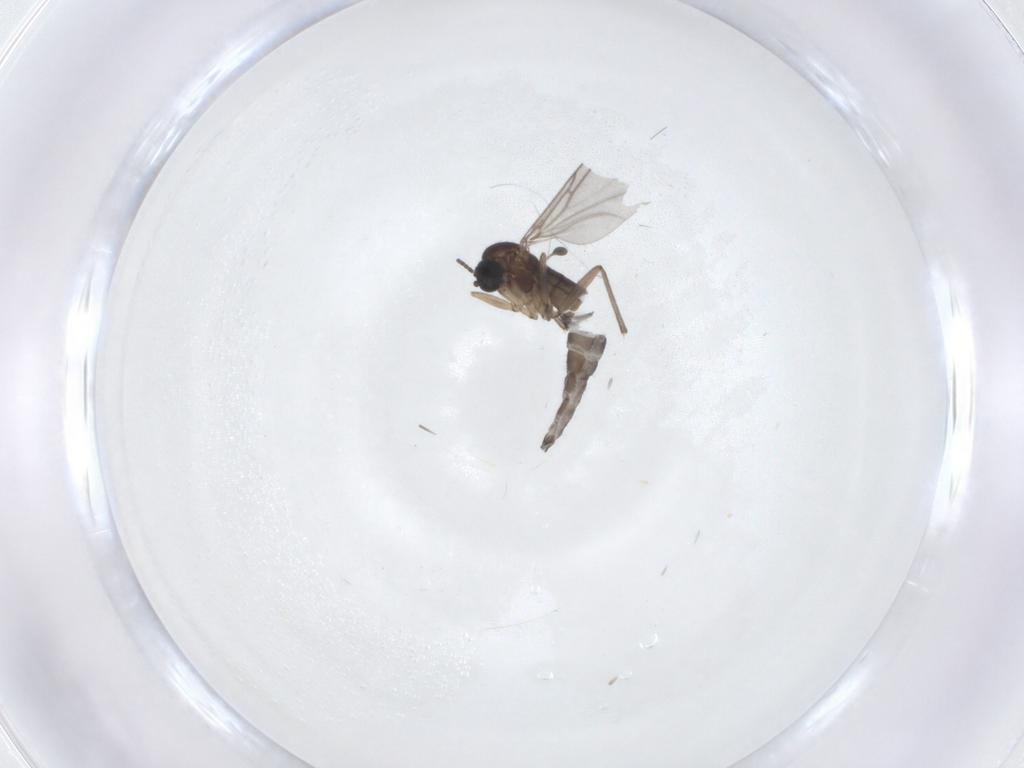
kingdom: Animalia
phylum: Arthropoda
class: Insecta
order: Diptera
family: Sciaridae
